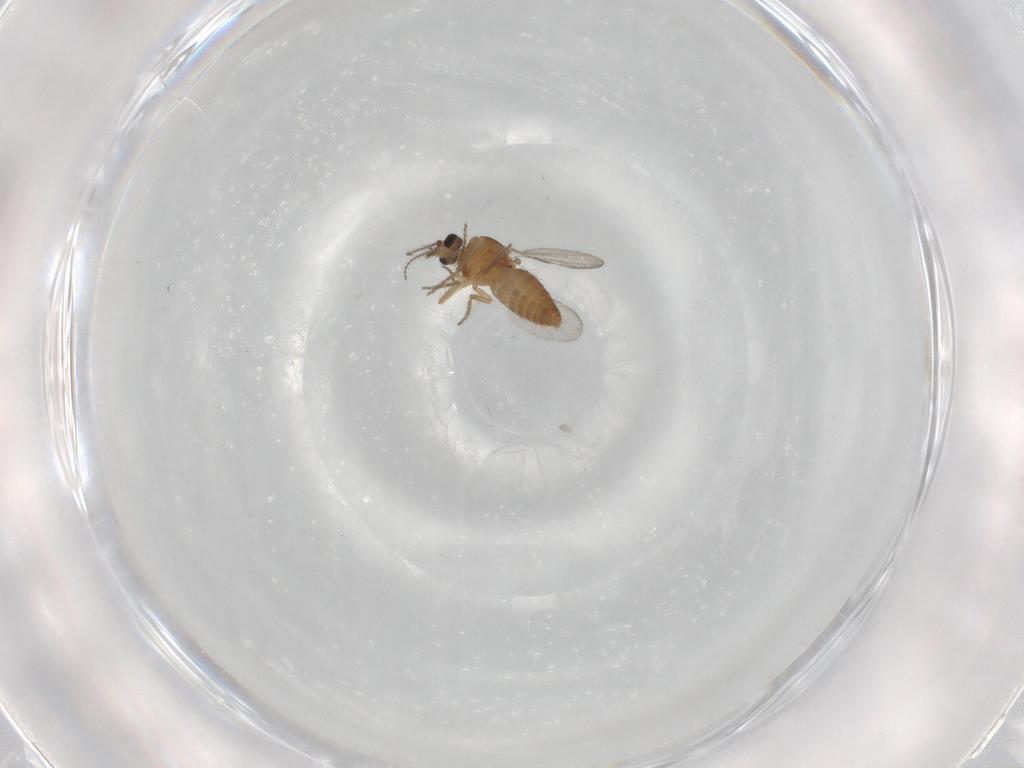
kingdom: Animalia
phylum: Arthropoda
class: Insecta
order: Diptera
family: Ceratopogonidae
